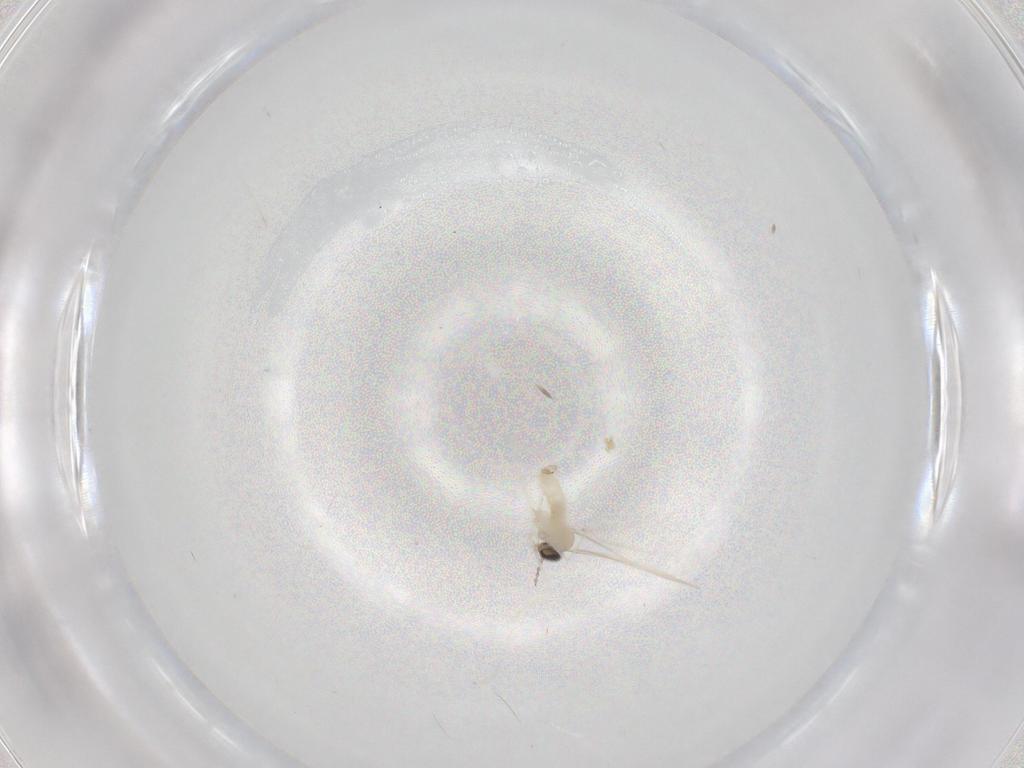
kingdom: Animalia
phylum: Arthropoda
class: Insecta
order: Diptera
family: Cecidomyiidae
